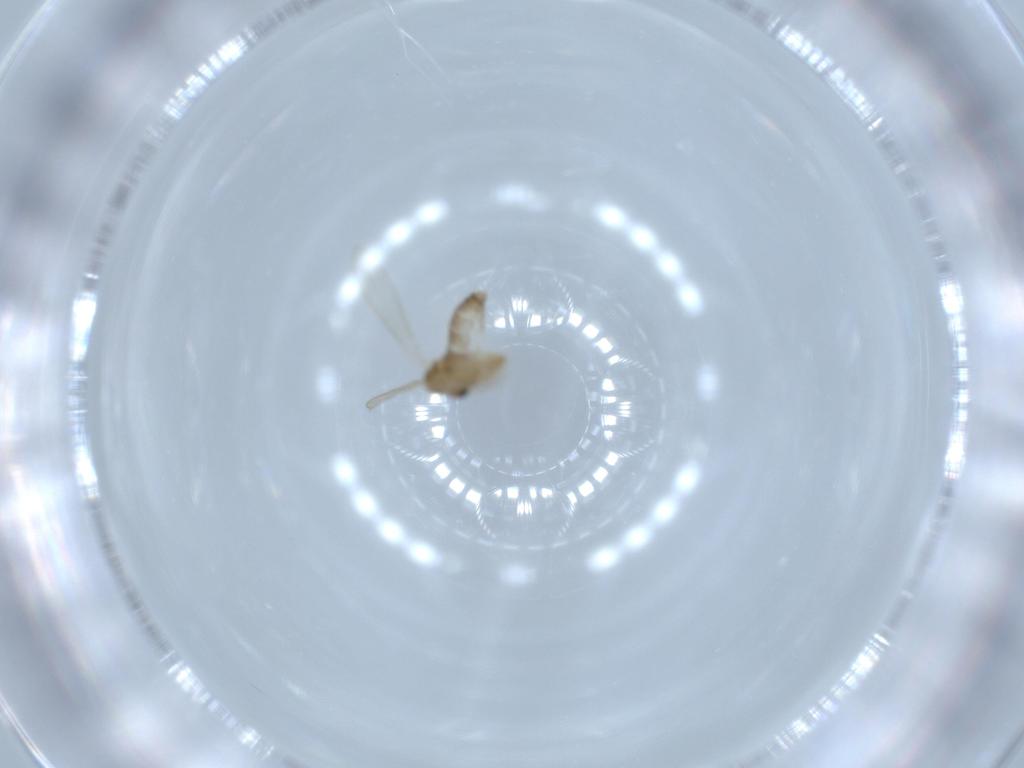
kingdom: Animalia
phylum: Arthropoda
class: Insecta
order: Diptera
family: Psychodidae
